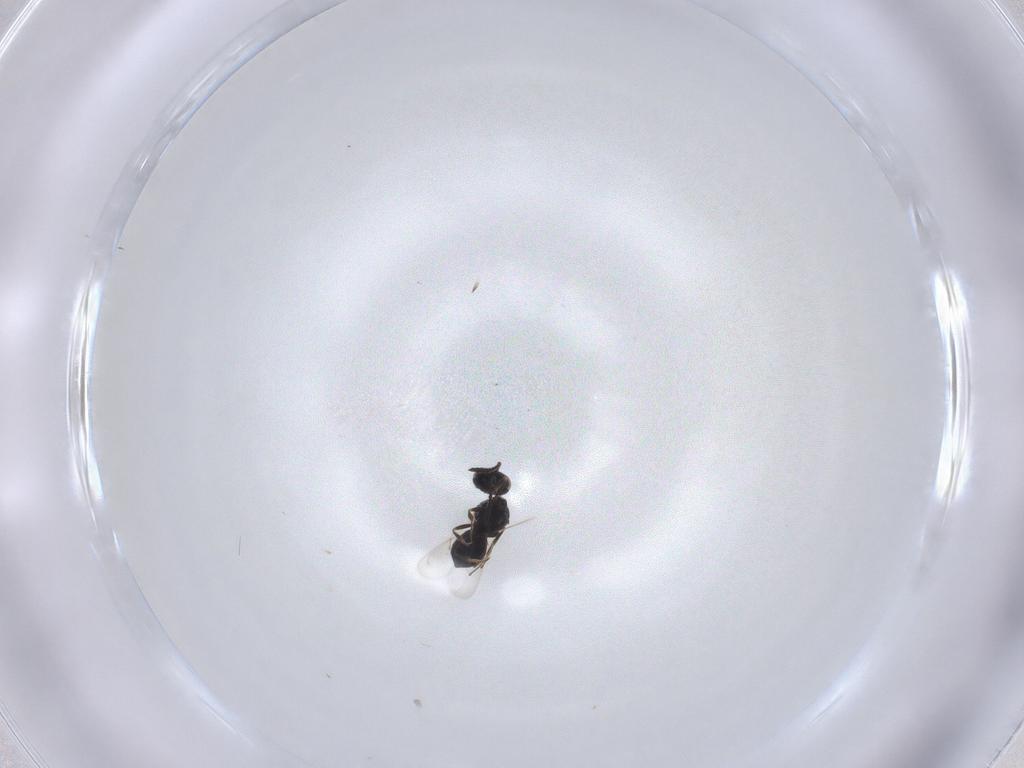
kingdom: Animalia
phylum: Arthropoda
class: Insecta
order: Hymenoptera
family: Scelionidae
